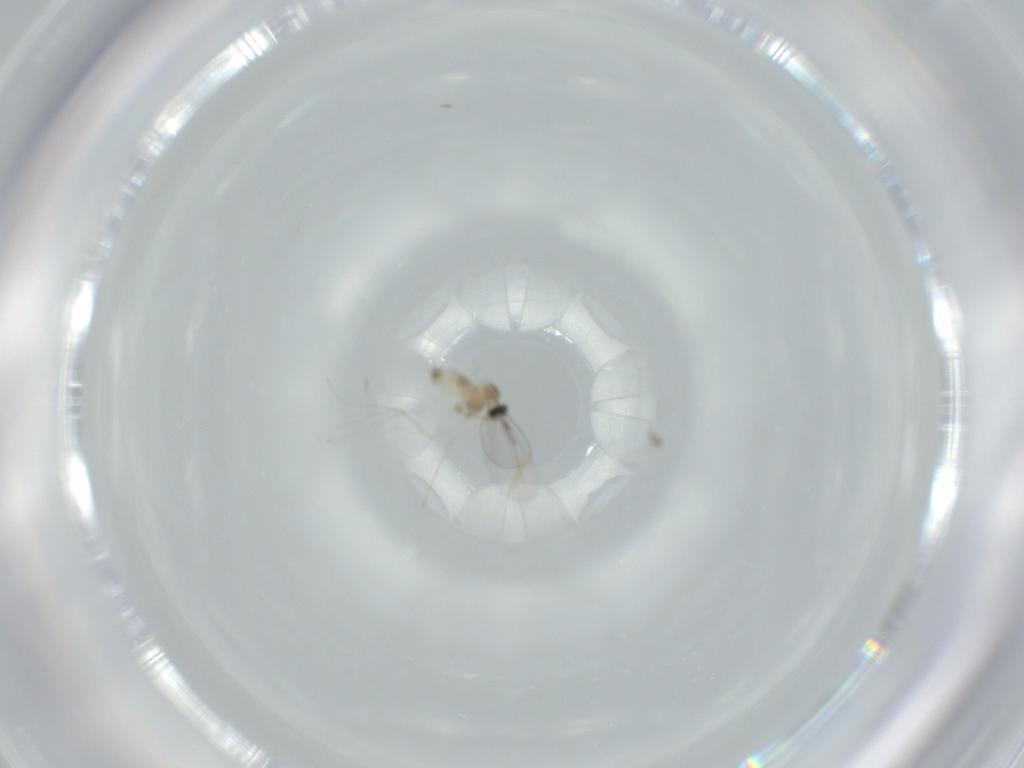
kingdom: Animalia
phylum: Arthropoda
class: Insecta
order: Diptera
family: Cecidomyiidae
